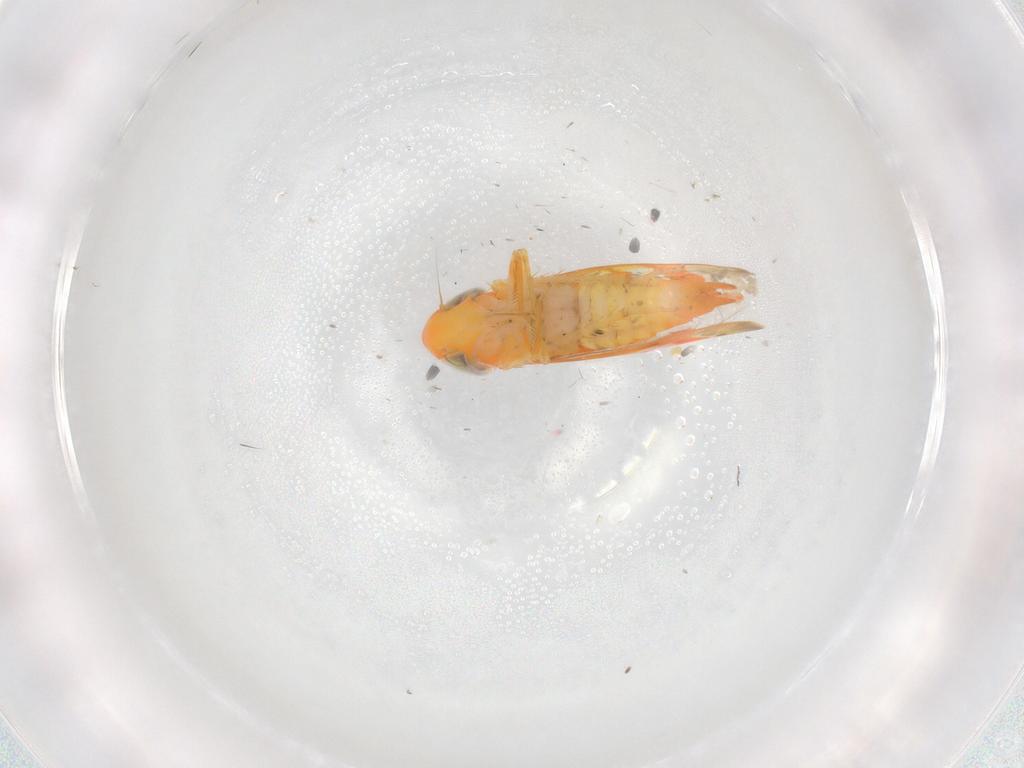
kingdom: Animalia
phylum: Arthropoda
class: Insecta
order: Hemiptera
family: Cicadellidae
